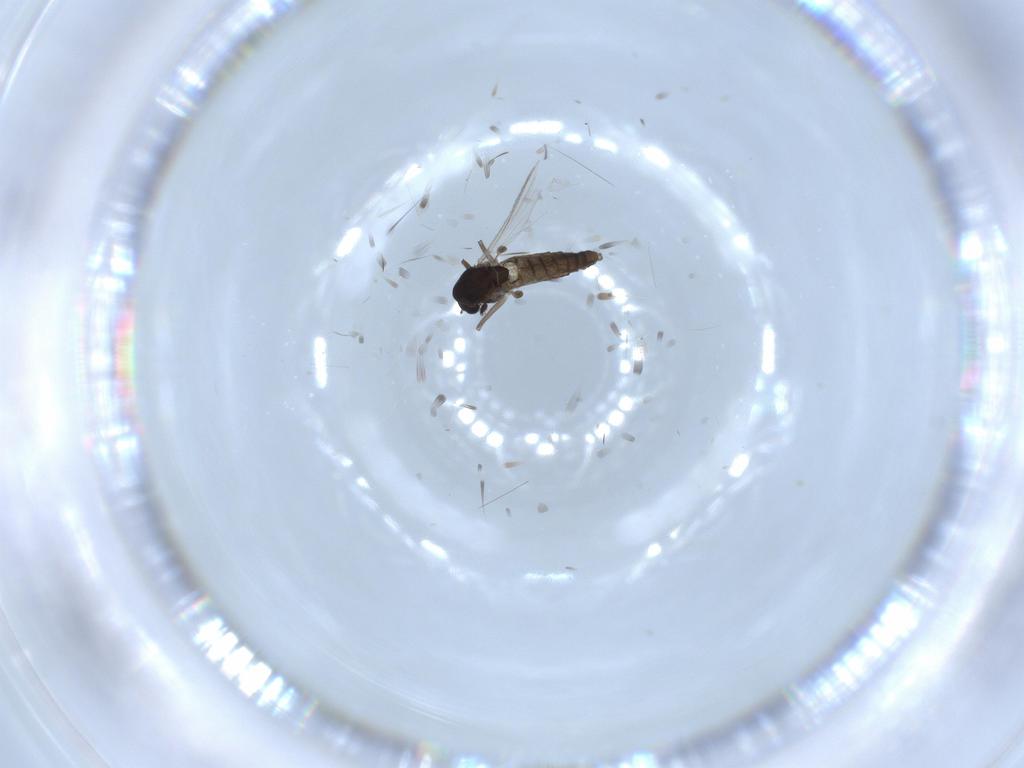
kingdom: Animalia
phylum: Arthropoda
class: Insecta
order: Diptera
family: Chironomidae
